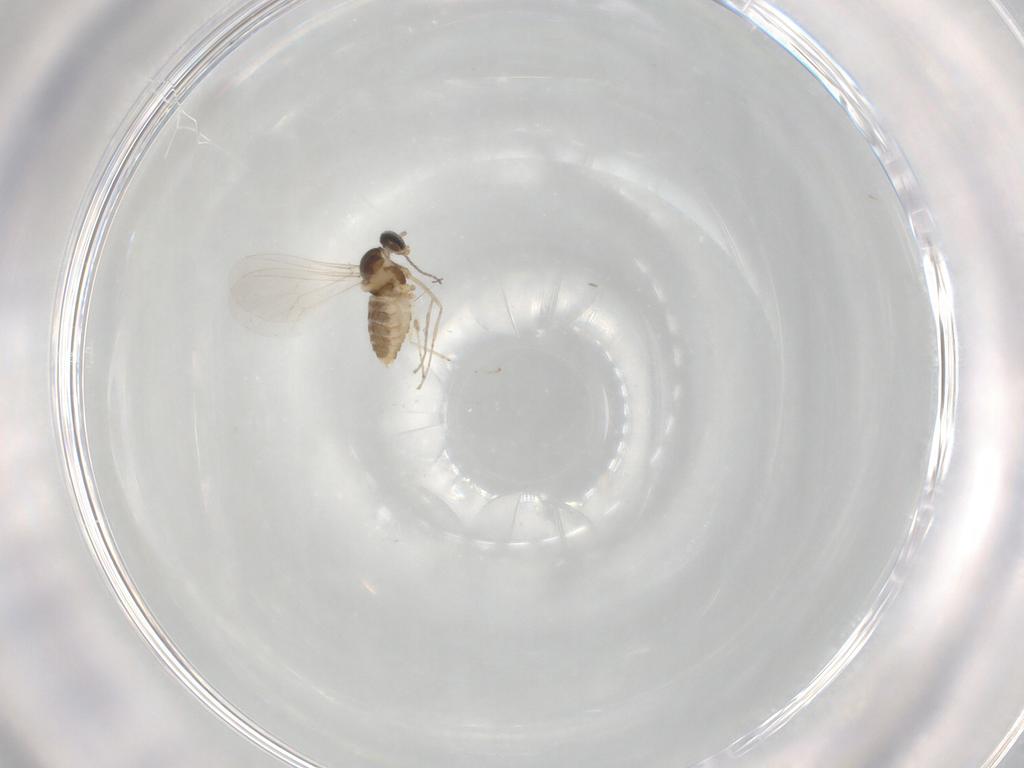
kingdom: Animalia
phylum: Arthropoda
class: Insecta
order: Diptera
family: Cecidomyiidae
